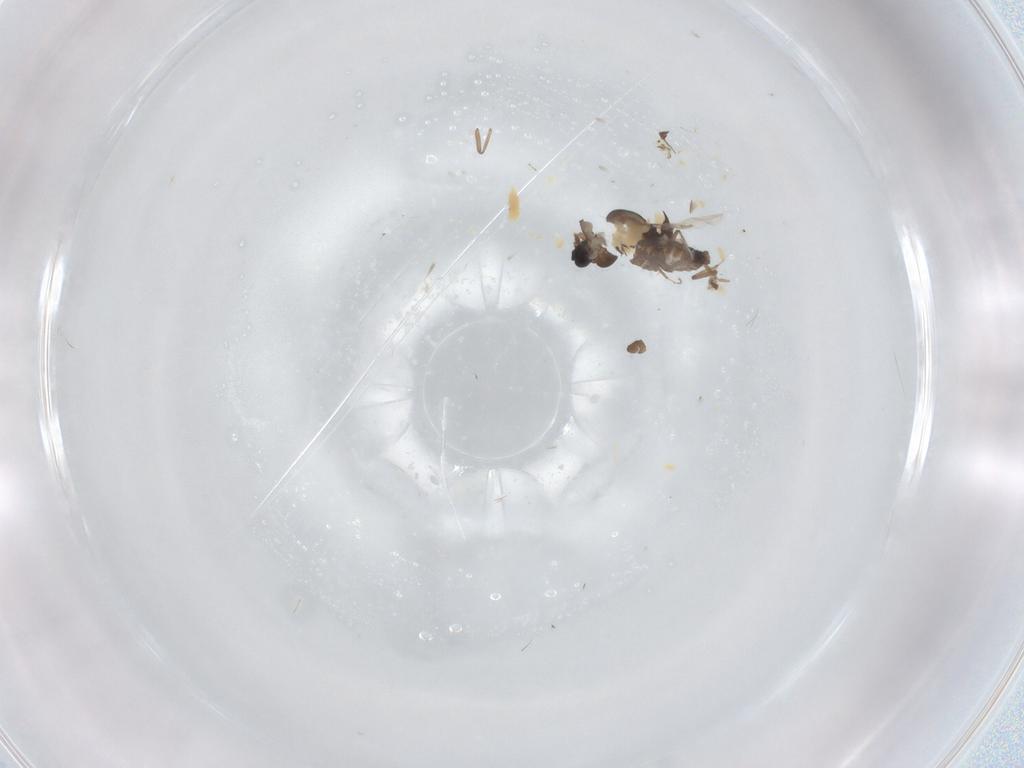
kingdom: Animalia
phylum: Arthropoda
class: Insecta
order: Diptera
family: Ceratopogonidae
